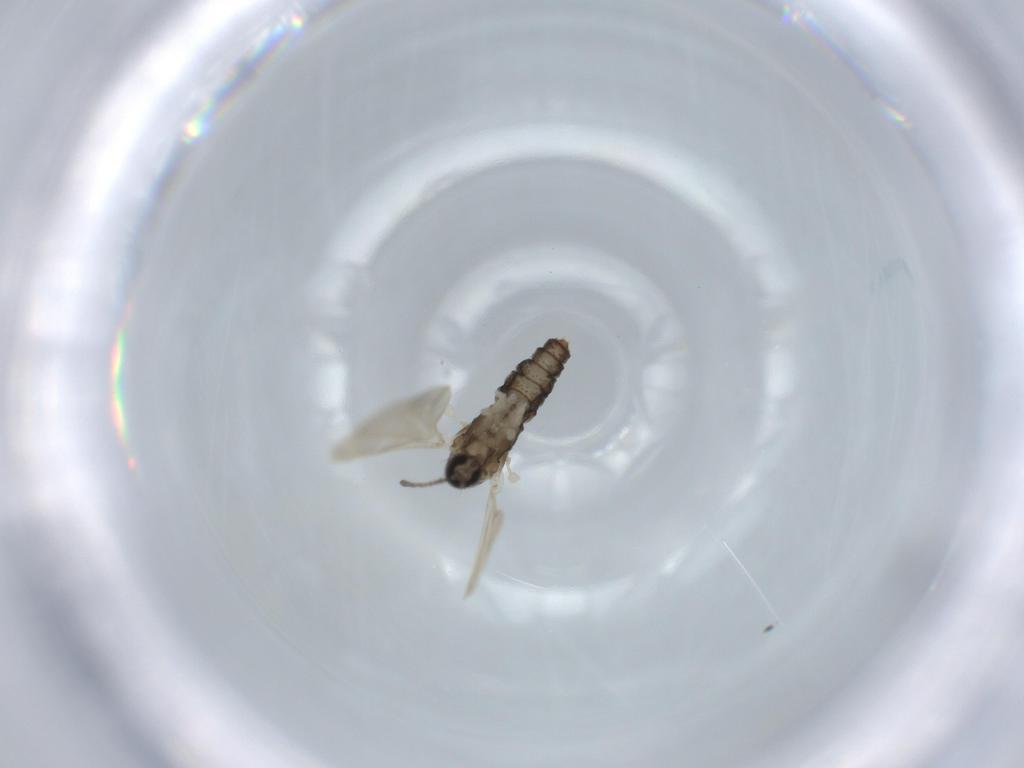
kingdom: Animalia
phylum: Arthropoda
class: Insecta
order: Diptera
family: Cecidomyiidae
